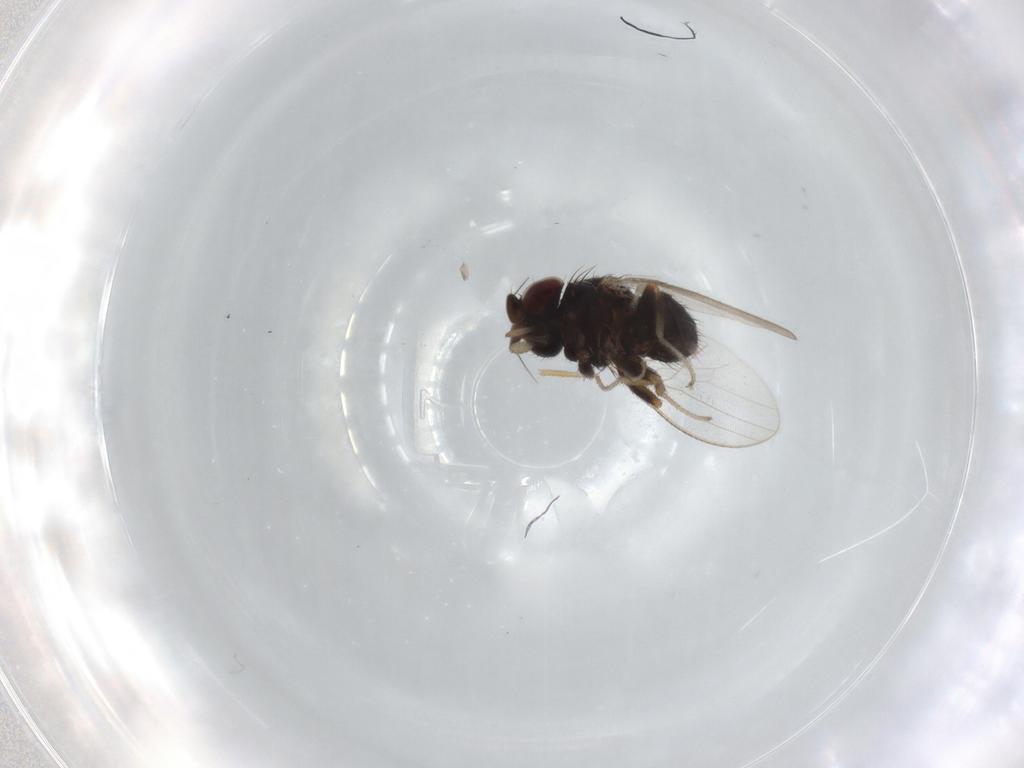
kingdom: Animalia
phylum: Arthropoda
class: Insecta
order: Diptera
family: Milichiidae
